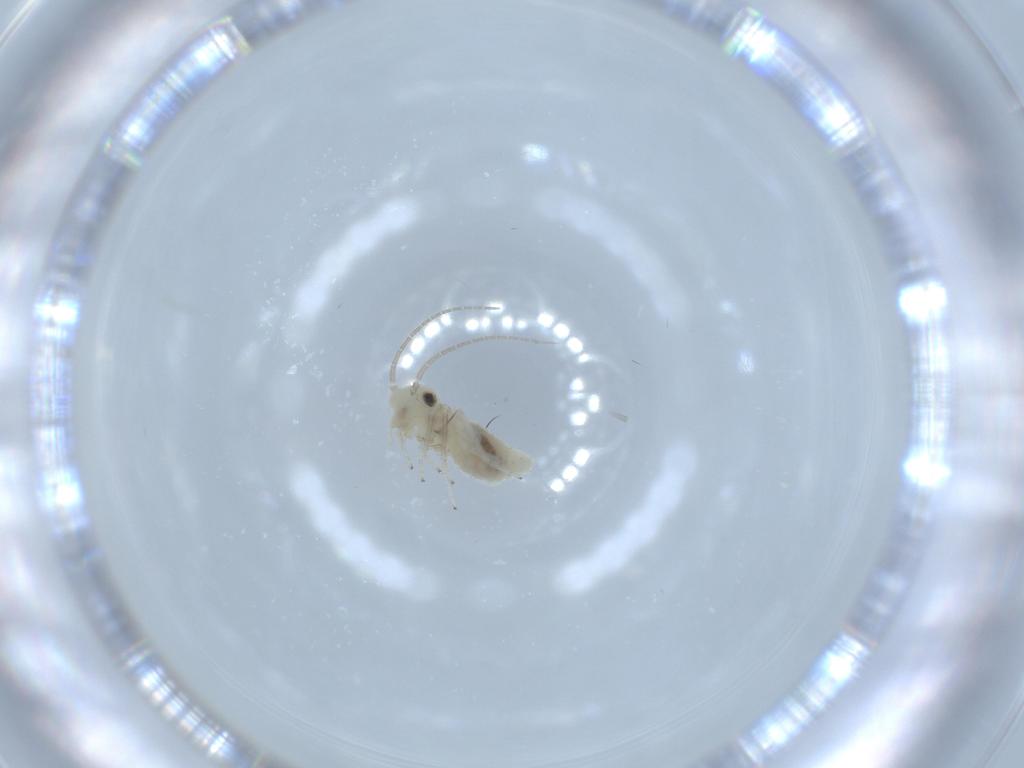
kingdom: Animalia
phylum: Arthropoda
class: Insecta
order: Psocodea
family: Caeciliusidae
